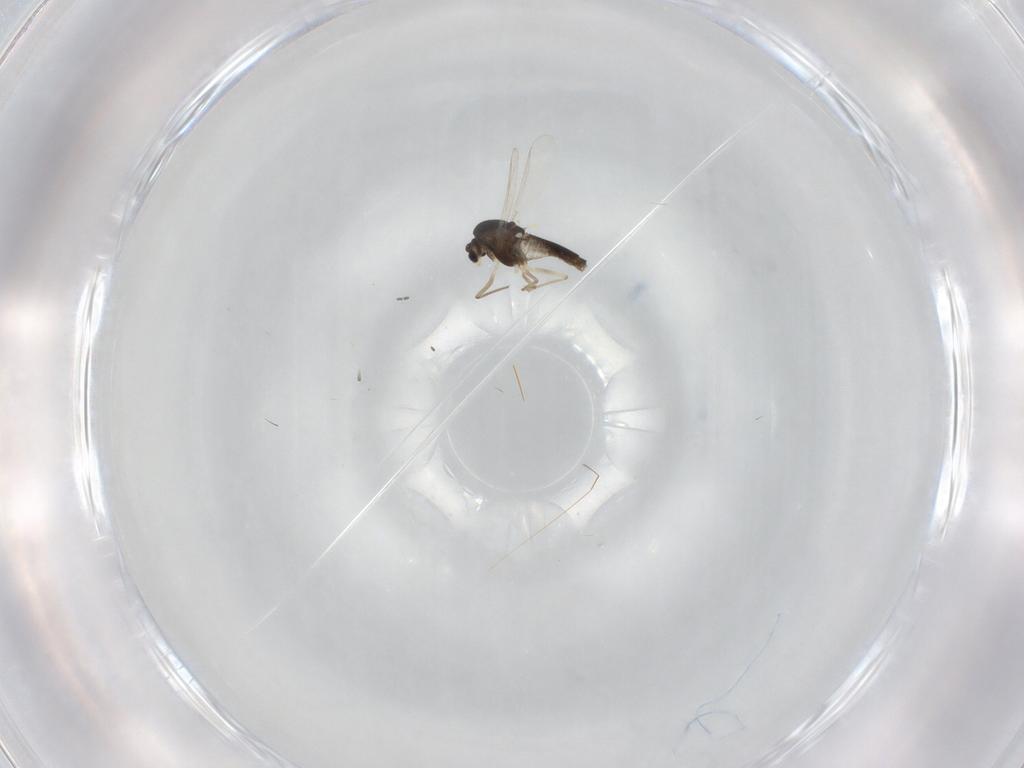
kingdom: Animalia
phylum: Arthropoda
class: Insecta
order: Diptera
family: Chironomidae
